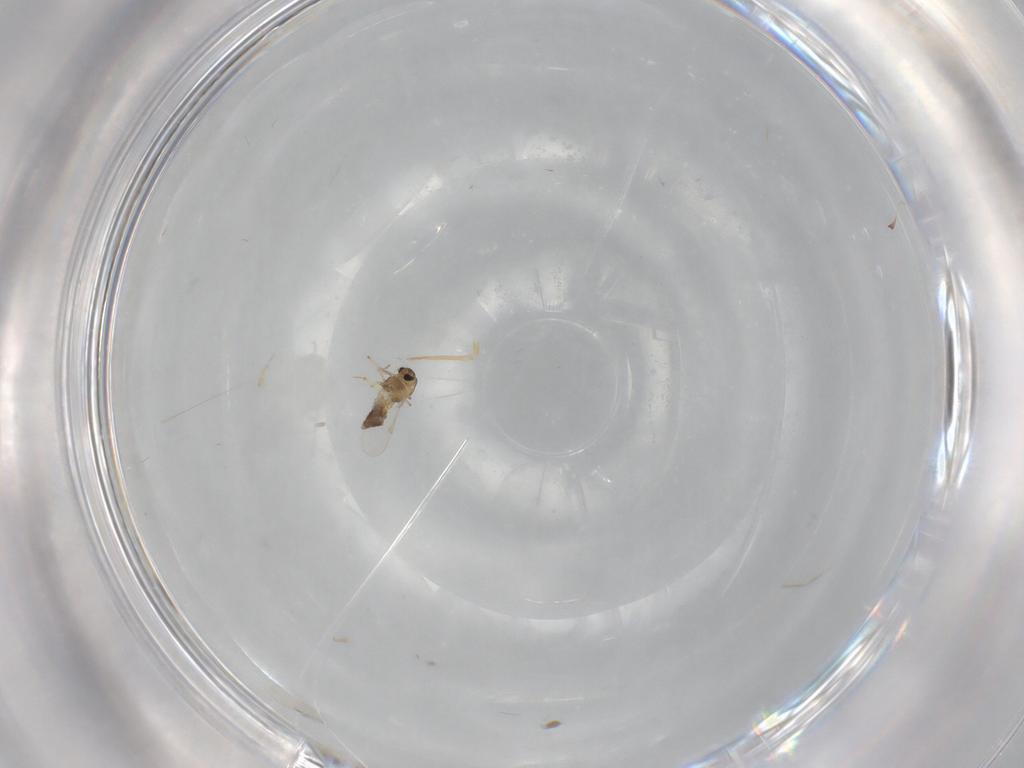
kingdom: Animalia
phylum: Arthropoda
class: Insecta
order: Diptera
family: Chironomidae
